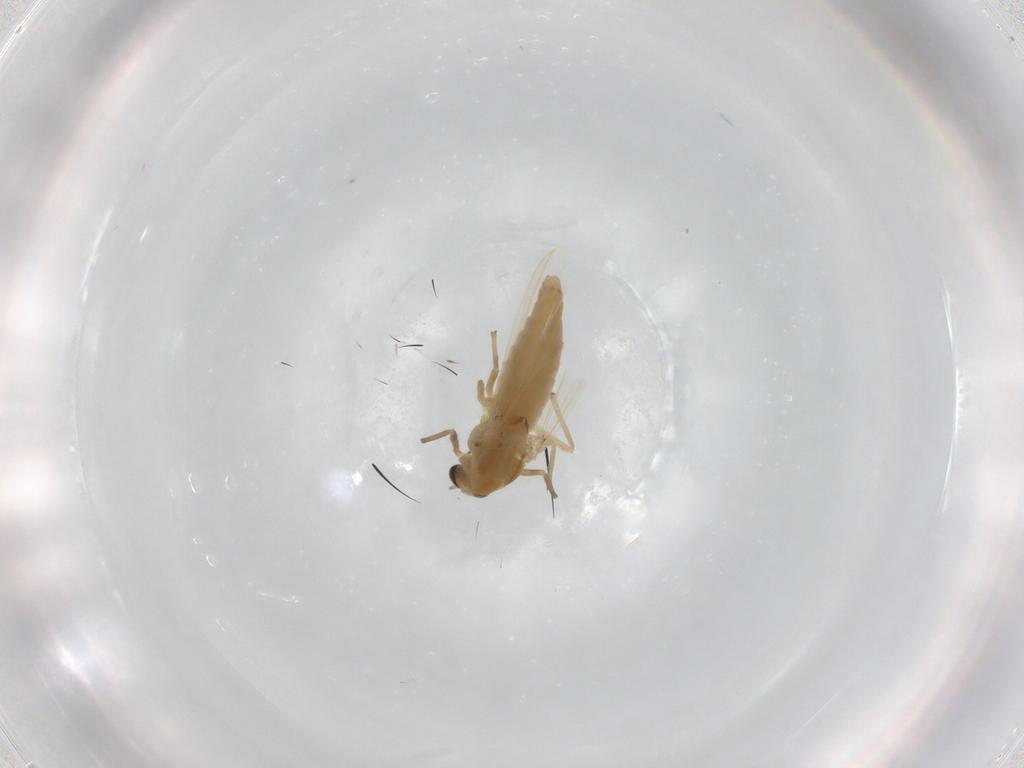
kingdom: Animalia
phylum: Arthropoda
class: Insecta
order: Diptera
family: Chironomidae
